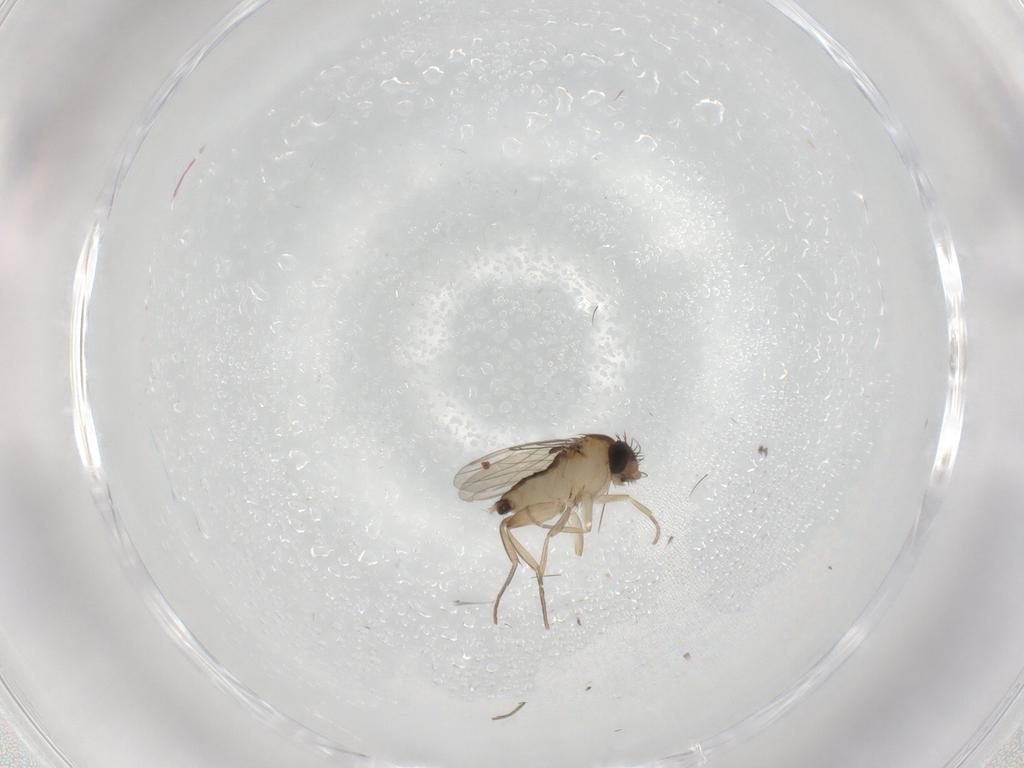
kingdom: Animalia
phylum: Arthropoda
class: Insecta
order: Diptera
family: Phoridae
